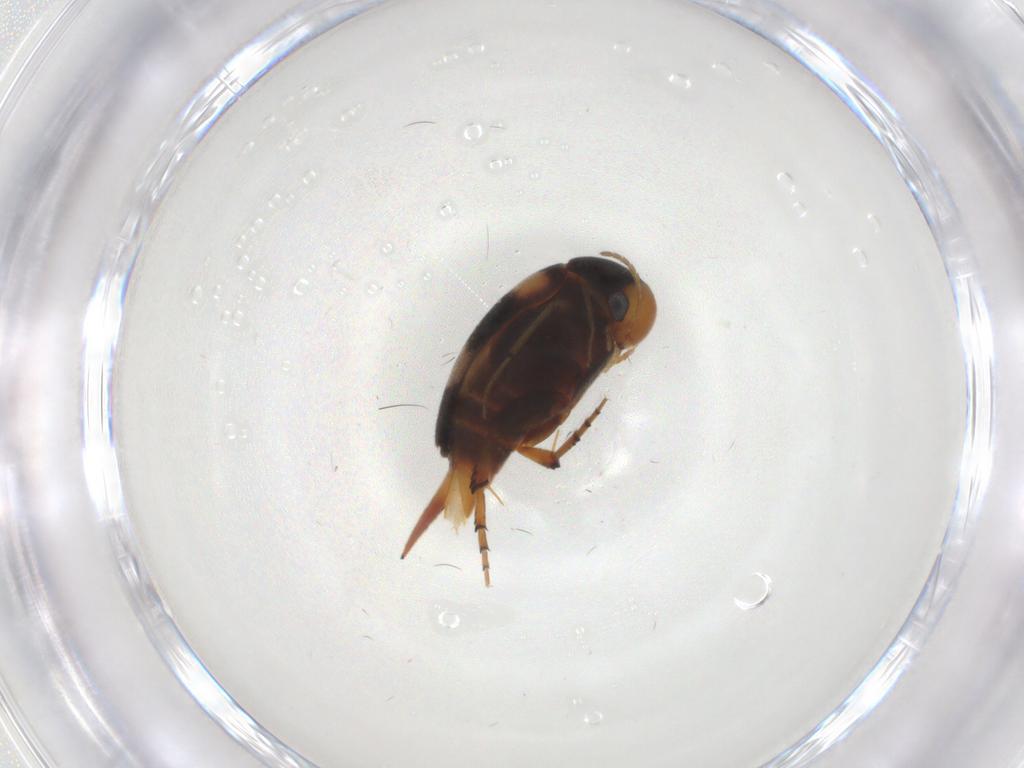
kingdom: Animalia
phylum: Arthropoda
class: Insecta
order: Coleoptera
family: Mordellidae
